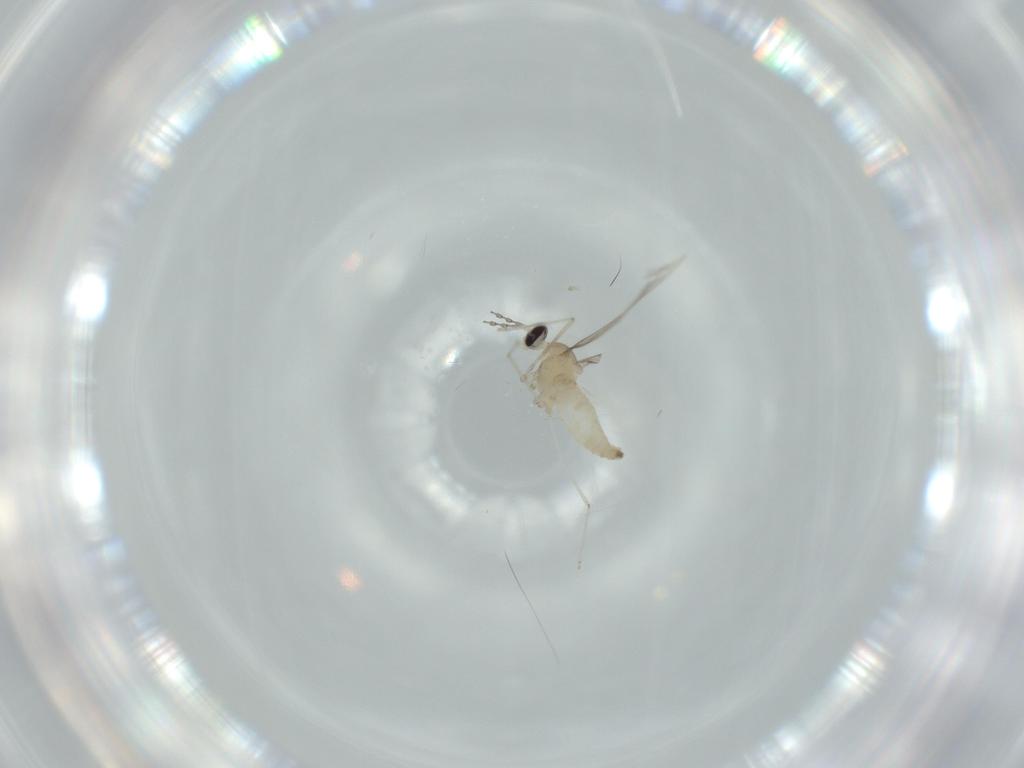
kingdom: Animalia
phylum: Arthropoda
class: Insecta
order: Diptera
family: Cecidomyiidae
